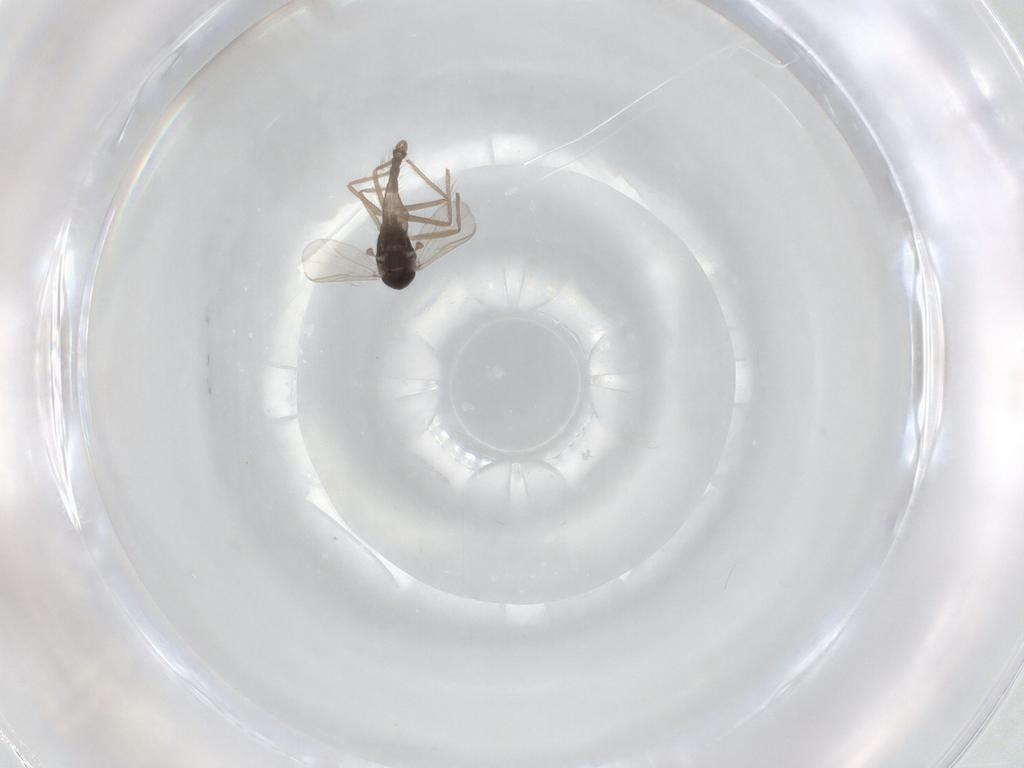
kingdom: Animalia
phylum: Arthropoda
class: Insecta
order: Diptera
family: Chironomidae
